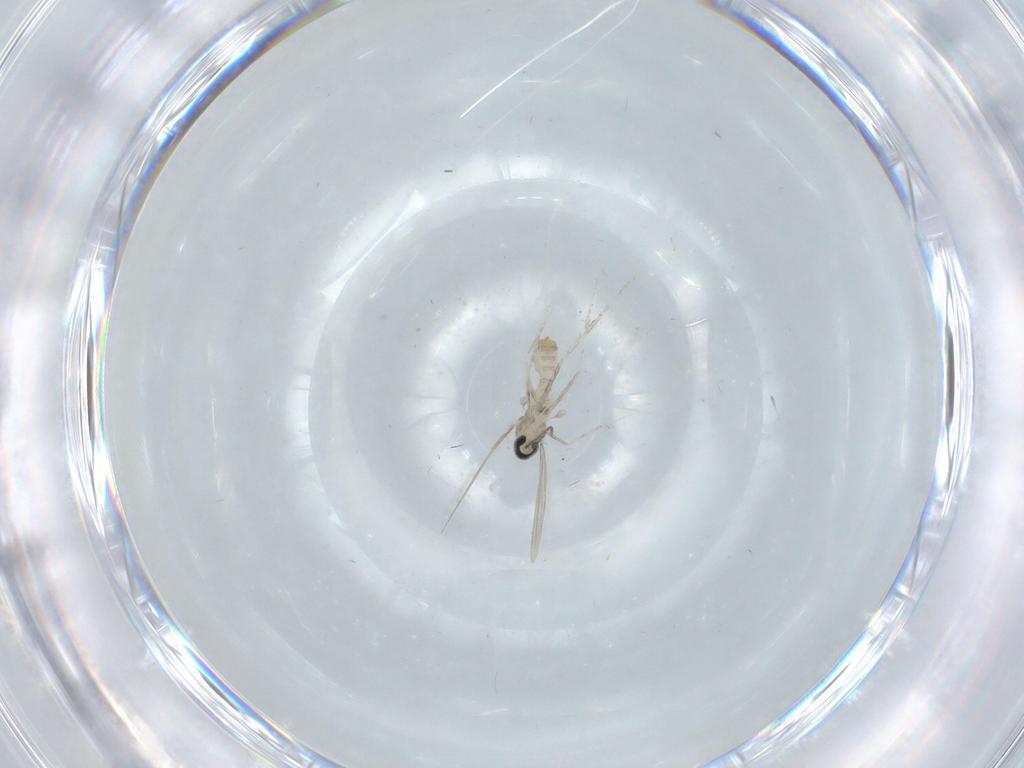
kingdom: Animalia
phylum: Arthropoda
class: Insecta
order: Diptera
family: Cecidomyiidae
